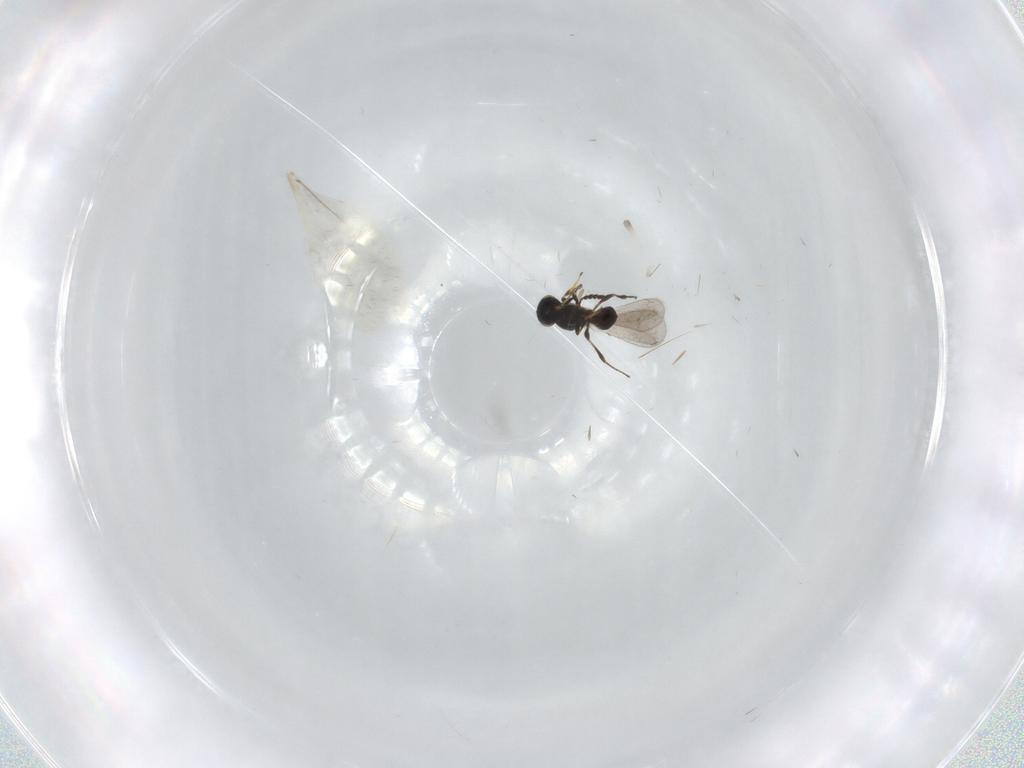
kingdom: Animalia
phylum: Arthropoda
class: Insecta
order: Hymenoptera
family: Platygastridae
